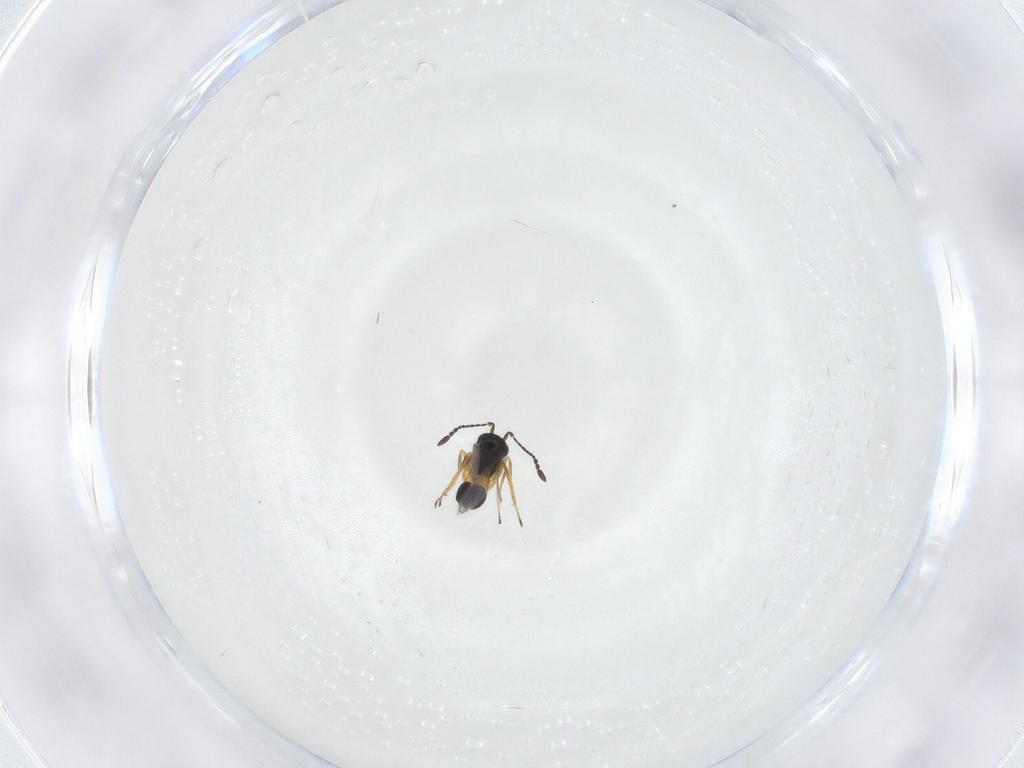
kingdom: Animalia
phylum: Arthropoda
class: Insecta
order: Hymenoptera
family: Mymaridae
